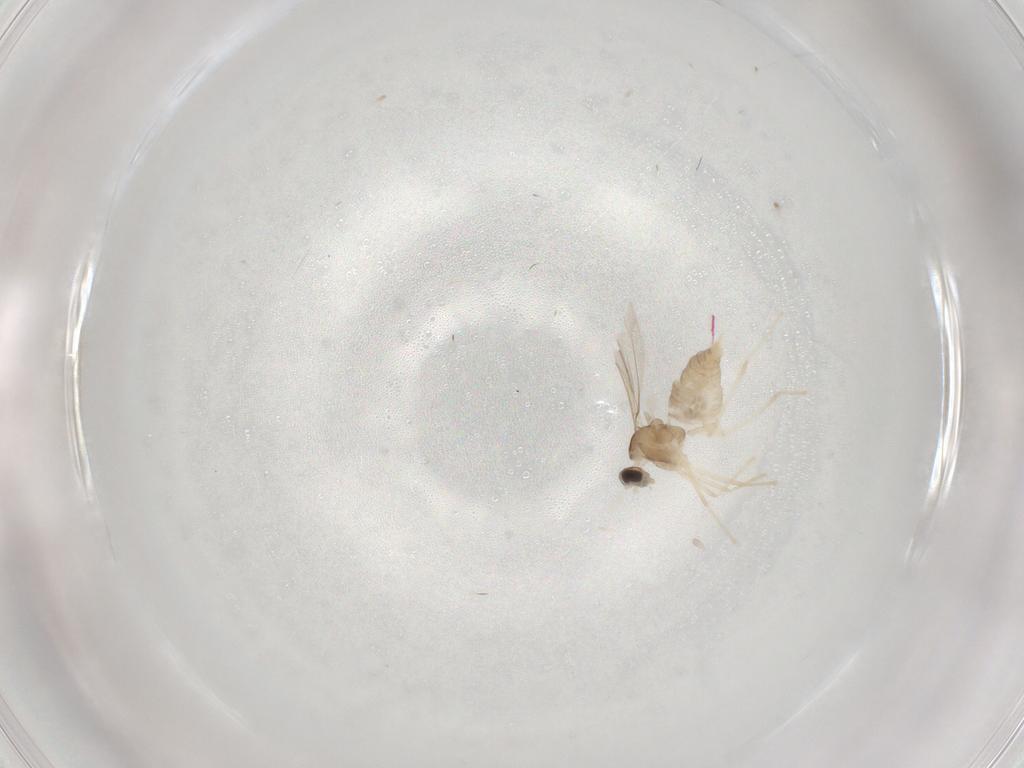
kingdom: Animalia
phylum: Arthropoda
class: Insecta
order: Diptera
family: Cecidomyiidae
